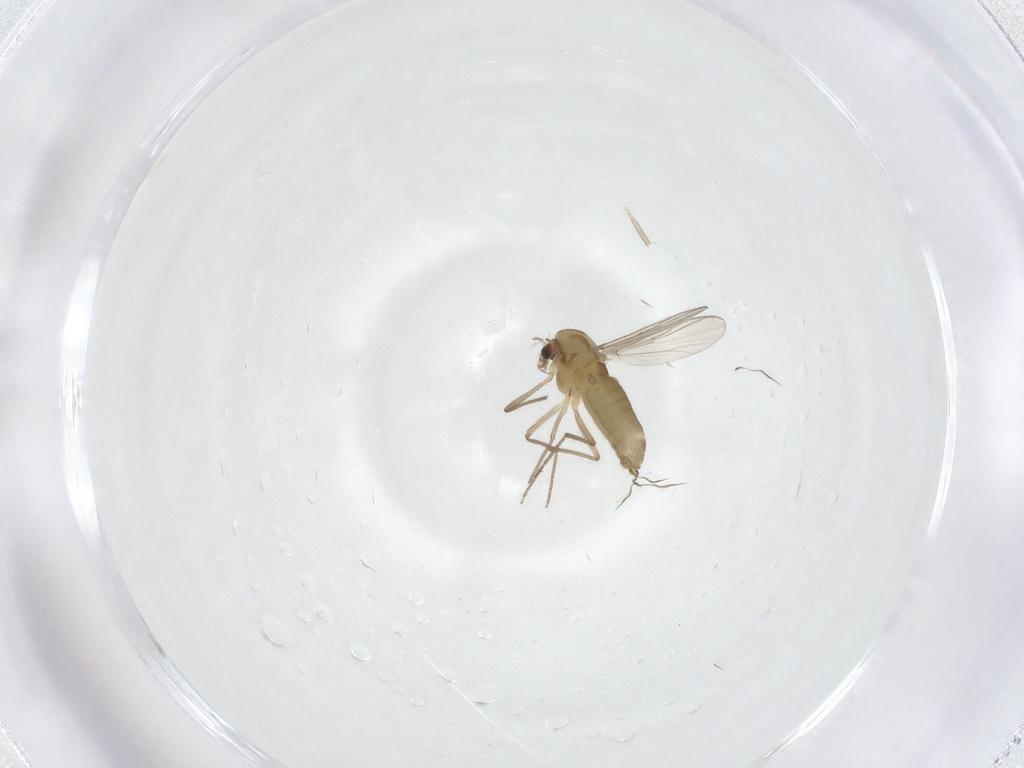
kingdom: Animalia
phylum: Arthropoda
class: Insecta
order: Diptera
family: Chironomidae
